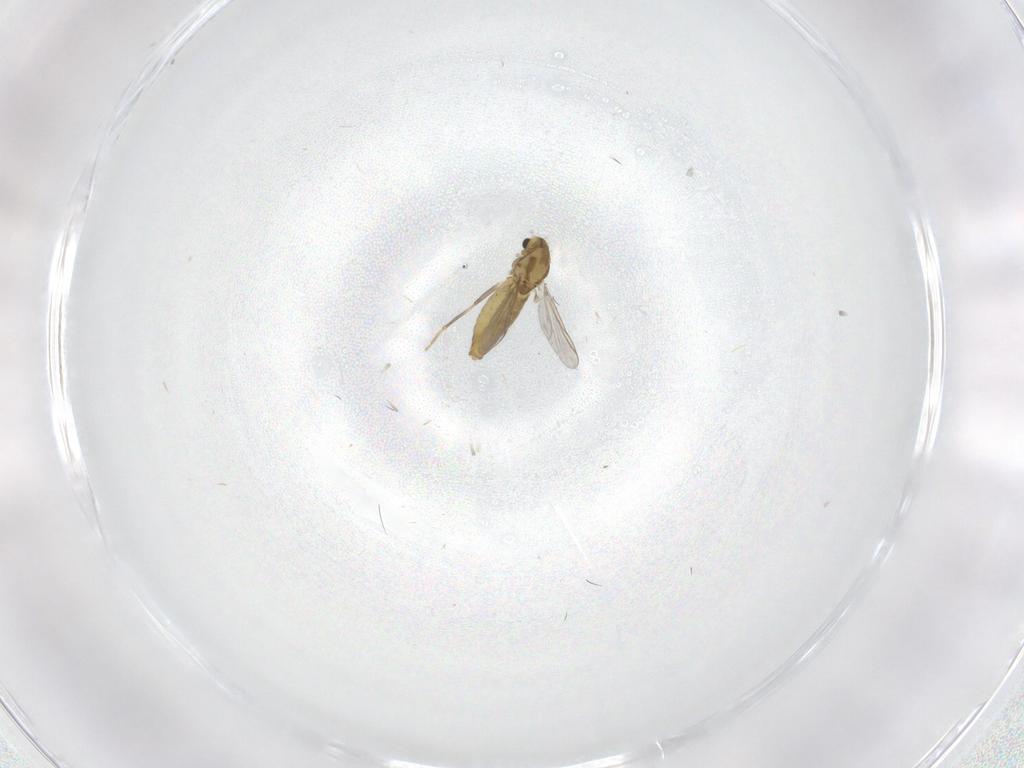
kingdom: Animalia
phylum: Arthropoda
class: Insecta
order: Diptera
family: Chironomidae
